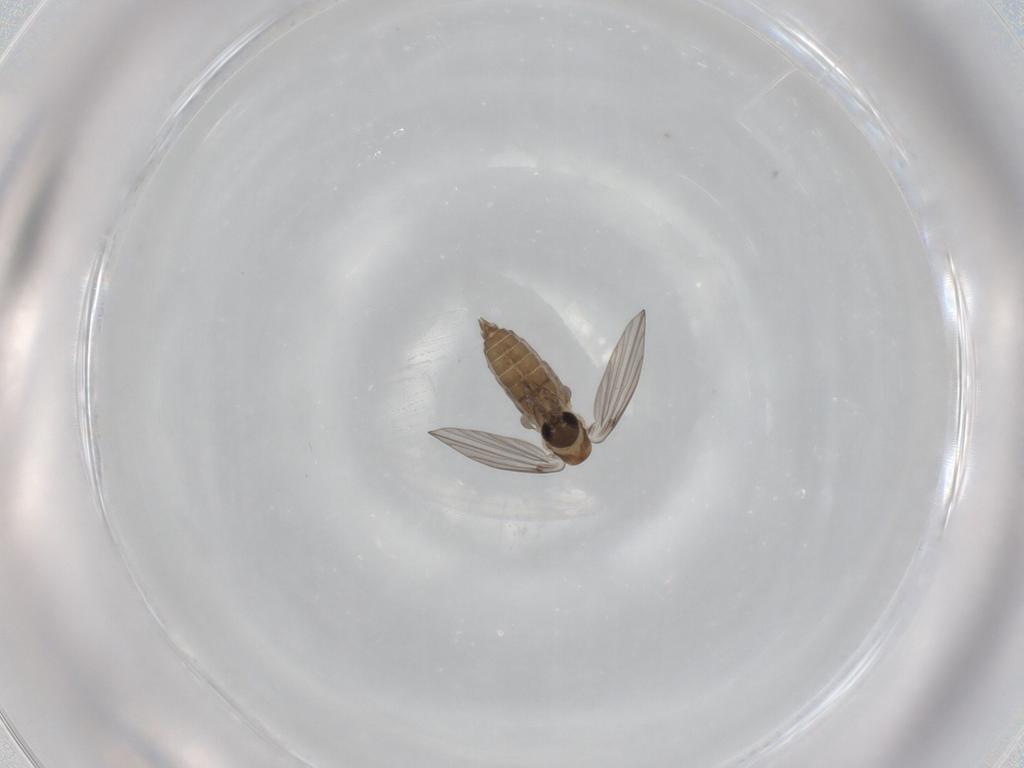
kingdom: Animalia
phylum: Arthropoda
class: Insecta
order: Diptera
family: Psychodidae
